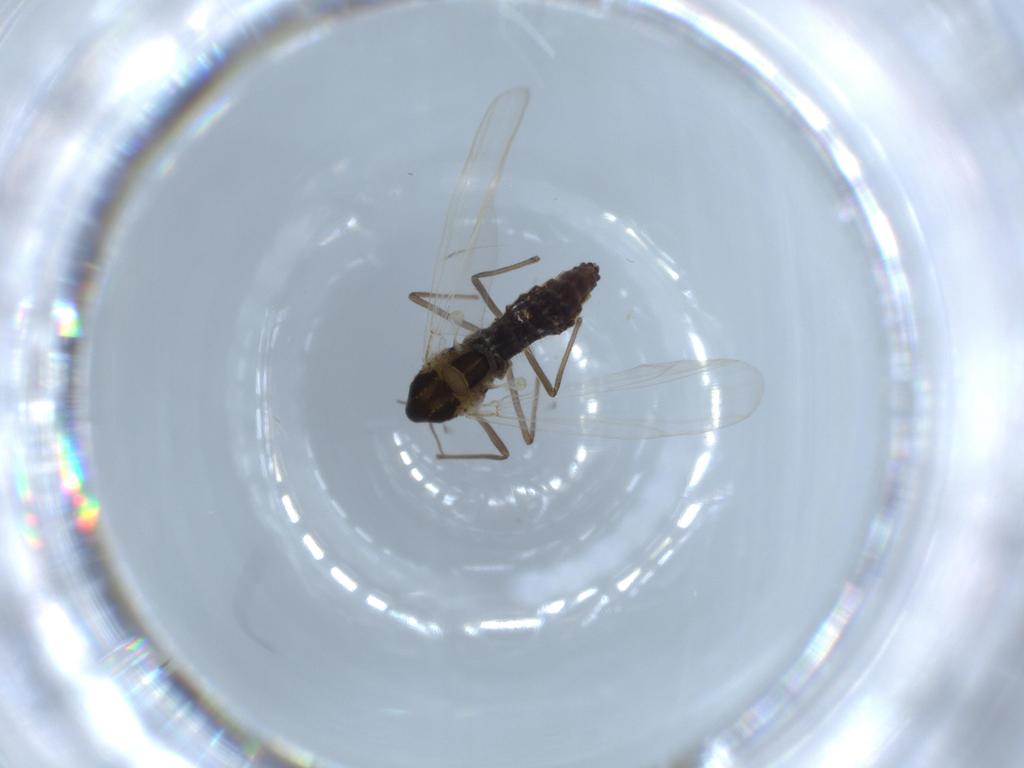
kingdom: Animalia
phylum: Arthropoda
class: Insecta
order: Diptera
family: Chironomidae
